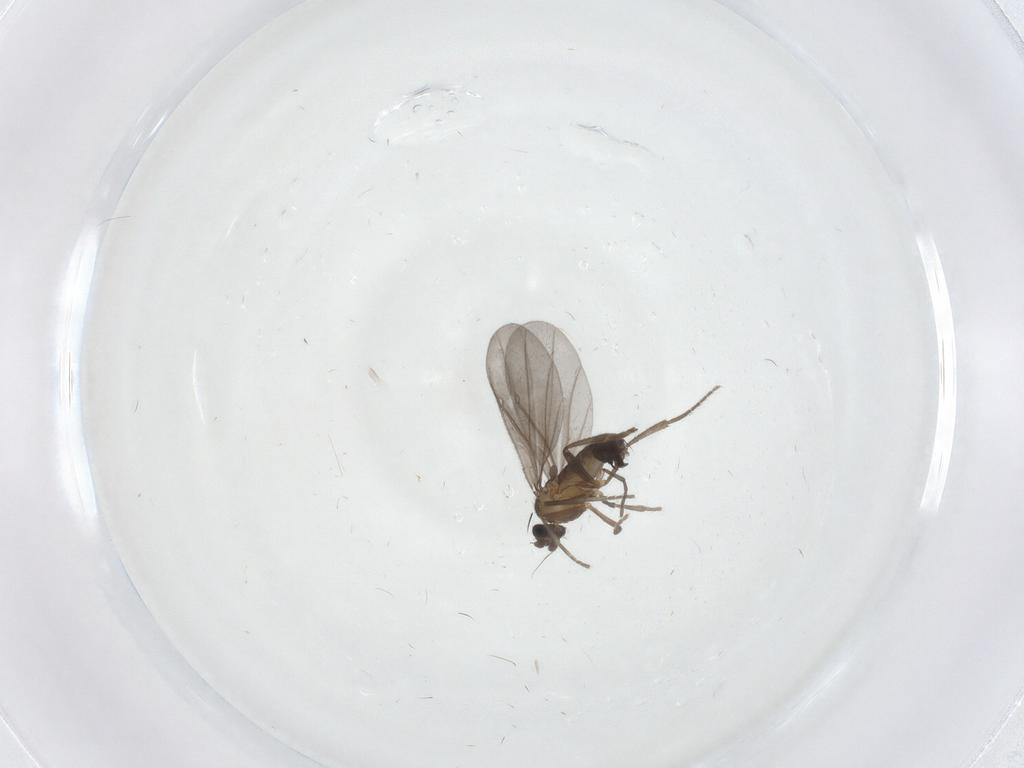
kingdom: Animalia
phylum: Arthropoda
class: Insecta
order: Diptera
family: Phoridae
